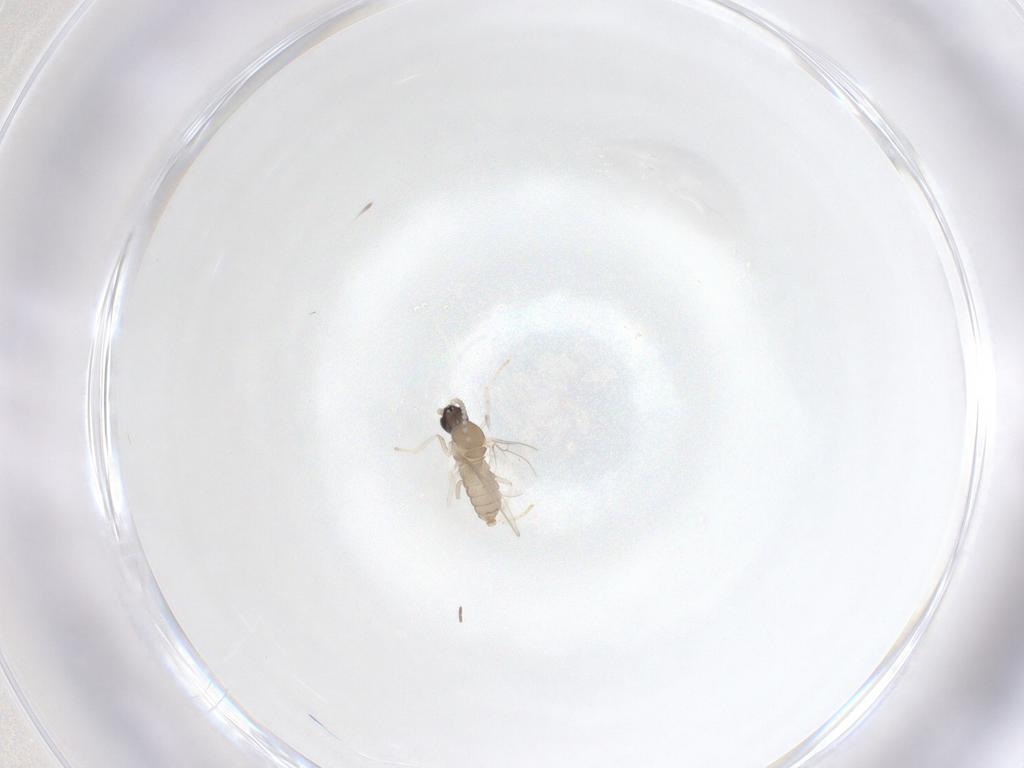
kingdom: Animalia
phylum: Arthropoda
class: Insecta
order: Diptera
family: Cecidomyiidae
